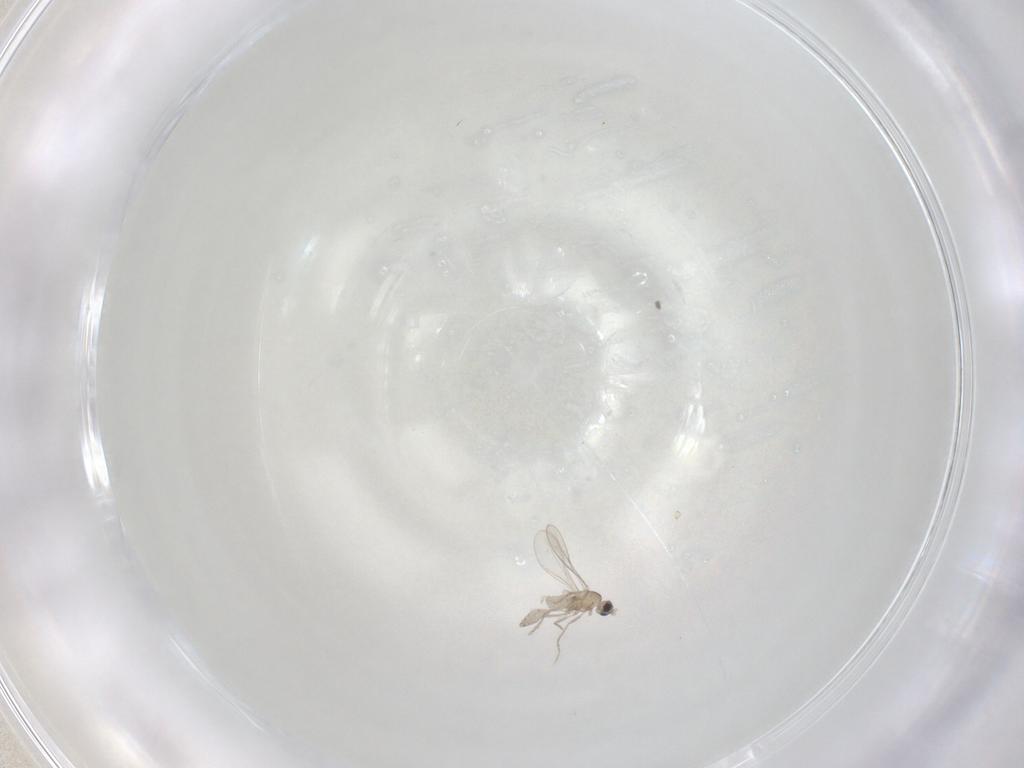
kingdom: Animalia
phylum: Arthropoda
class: Insecta
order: Diptera
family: Cecidomyiidae
